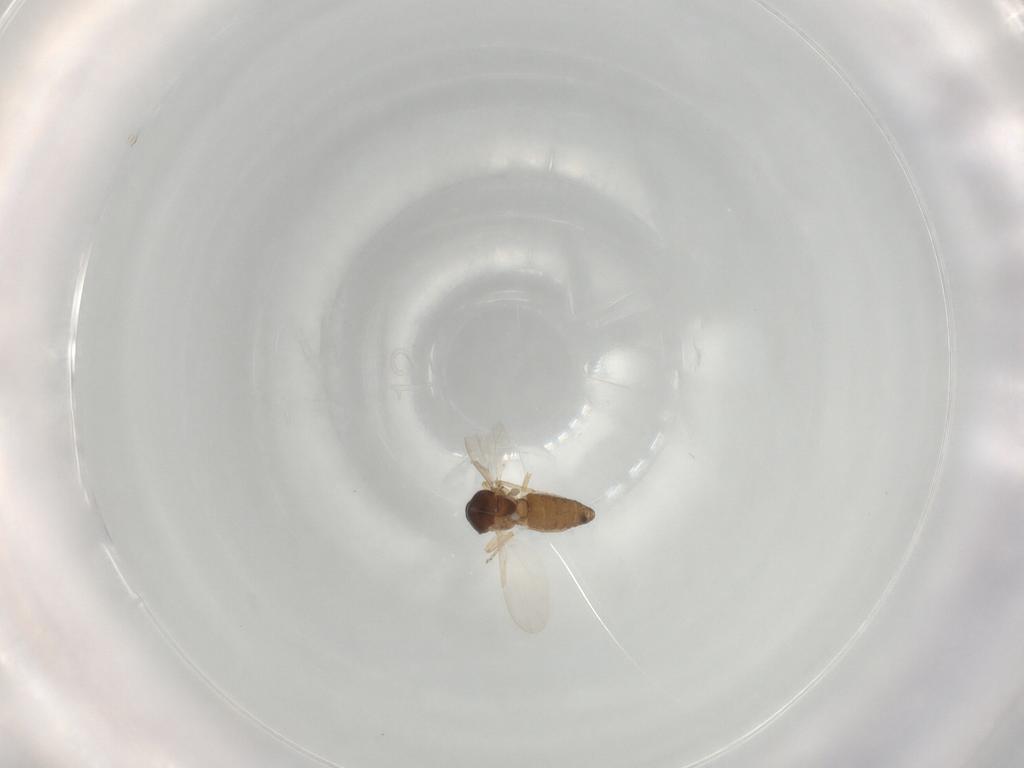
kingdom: Animalia
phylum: Arthropoda
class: Insecta
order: Diptera
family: Ceratopogonidae
